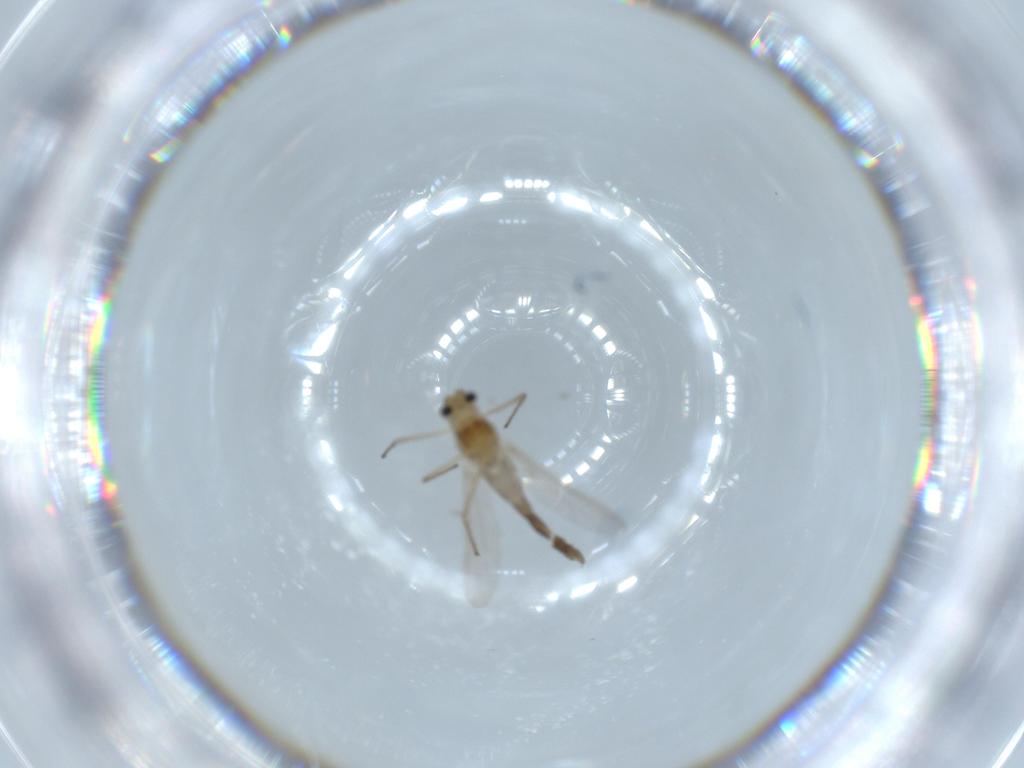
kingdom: Animalia
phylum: Arthropoda
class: Insecta
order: Diptera
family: Chironomidae
